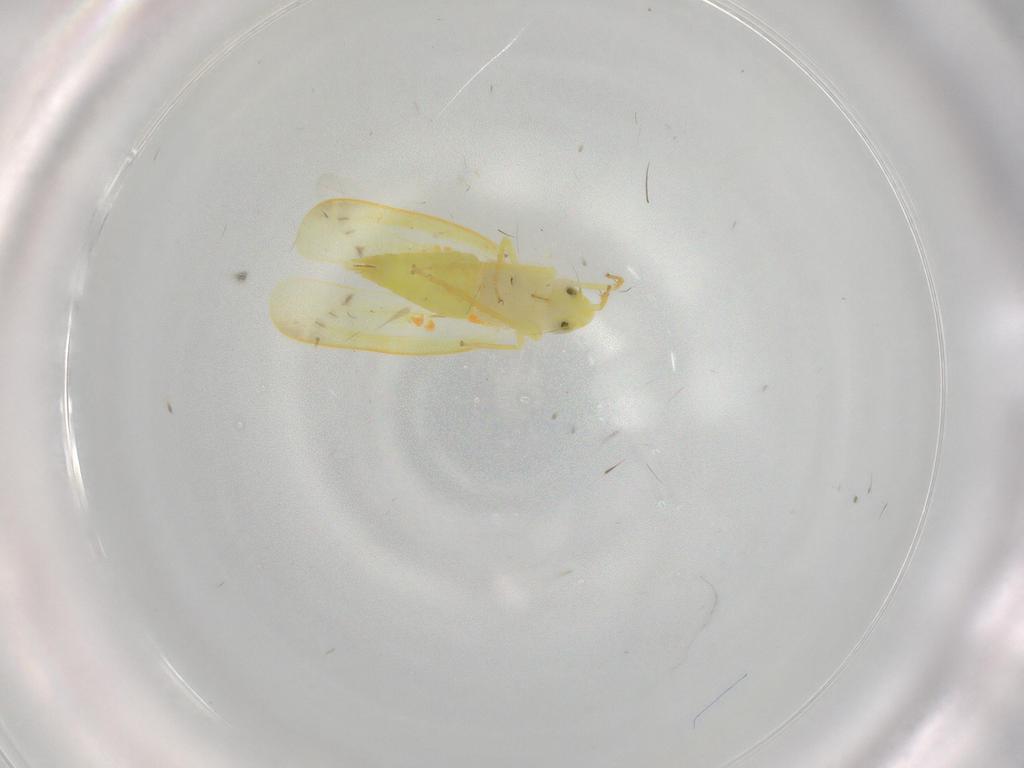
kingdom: Animalia
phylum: Arthropoda
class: Insecta
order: Hemiptera
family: Cicadellidae
